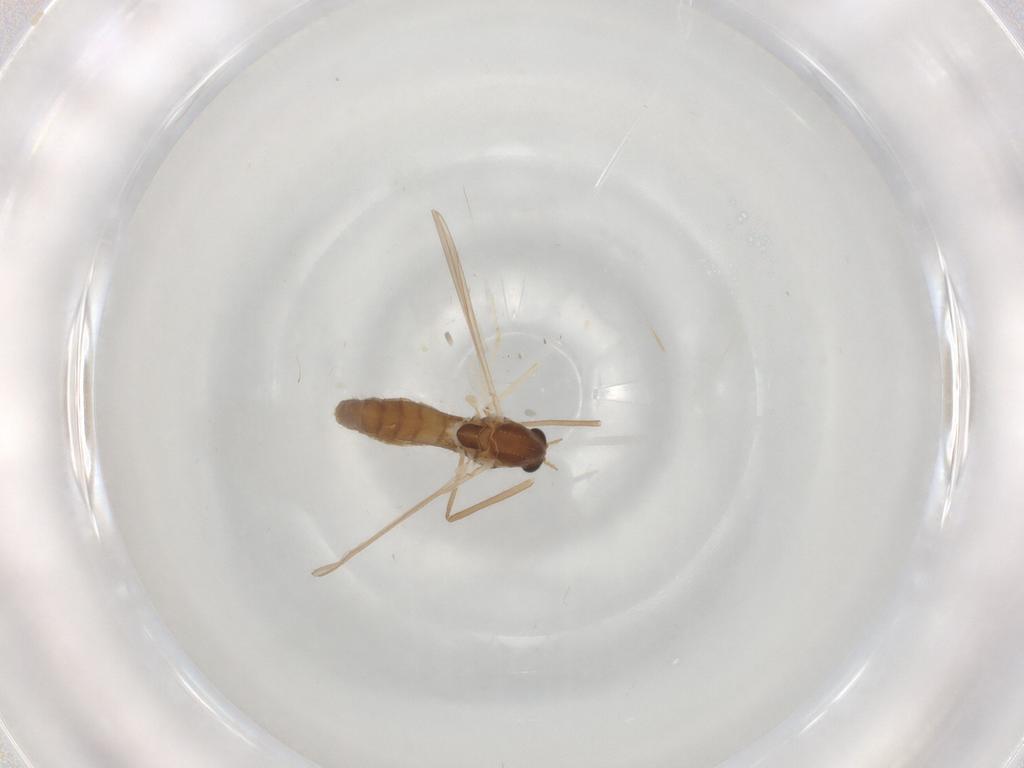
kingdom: Animalia
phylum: Arthropoda
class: Insecta
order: Diptera
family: Chironomidae
